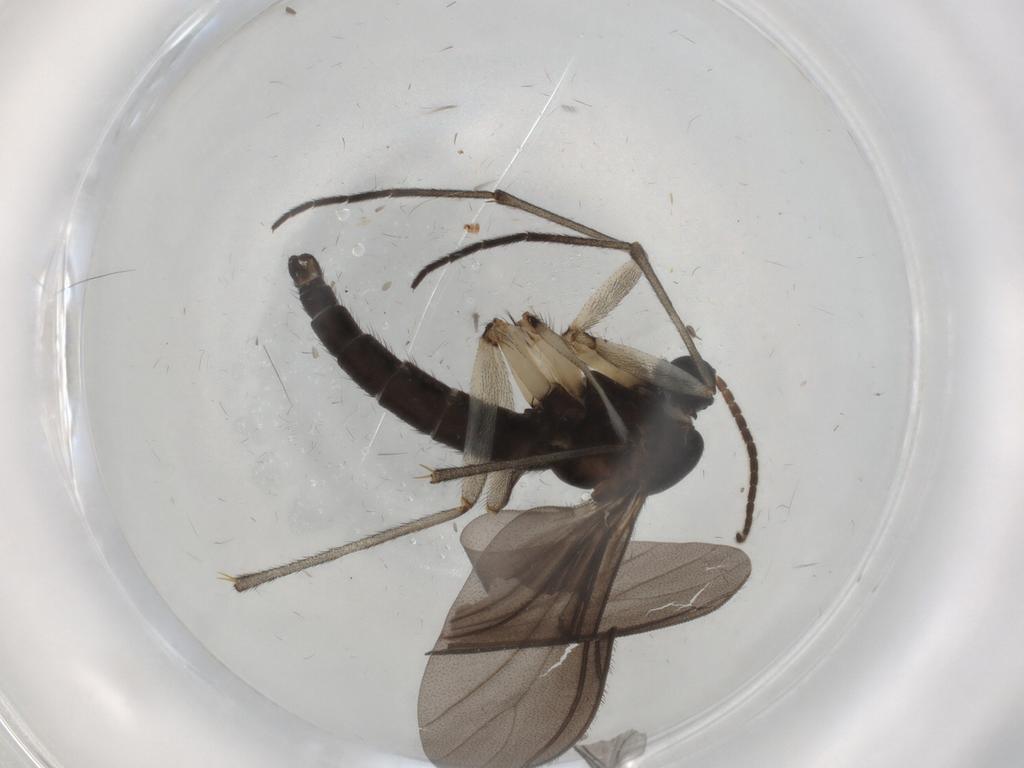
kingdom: Animalia
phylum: Arthropoda
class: Insecta
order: Diptera
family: Sciaridae
